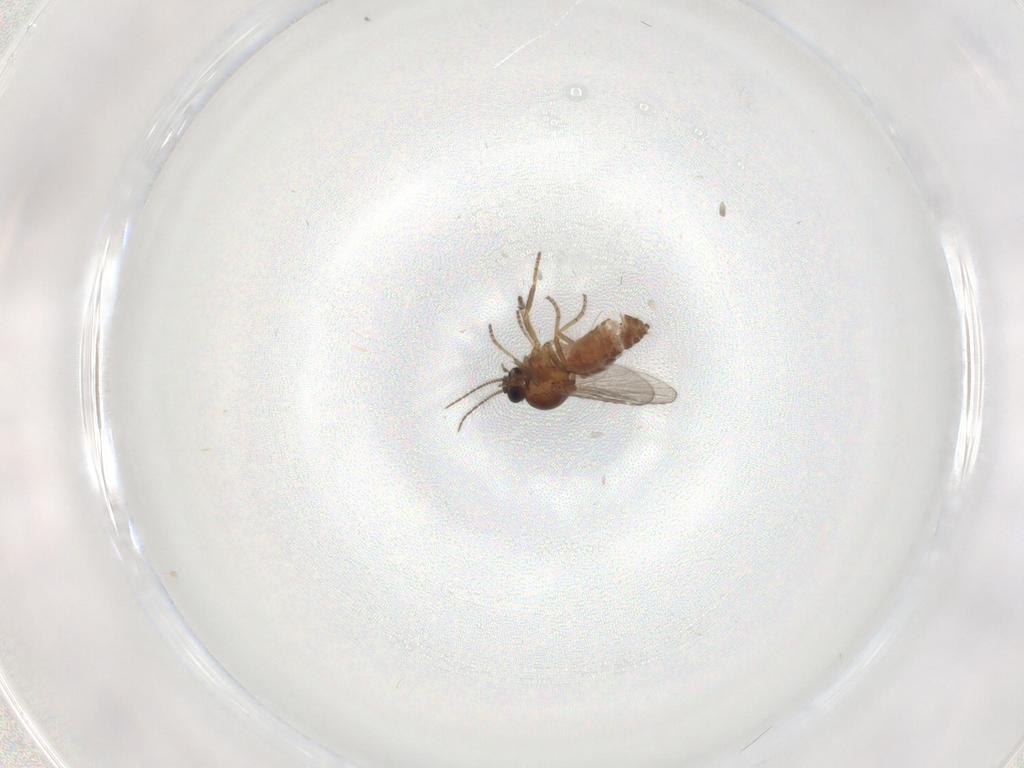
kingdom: Animalia
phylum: Arthropoda
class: Insecta
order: Diptera
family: Ceratopogonidae
